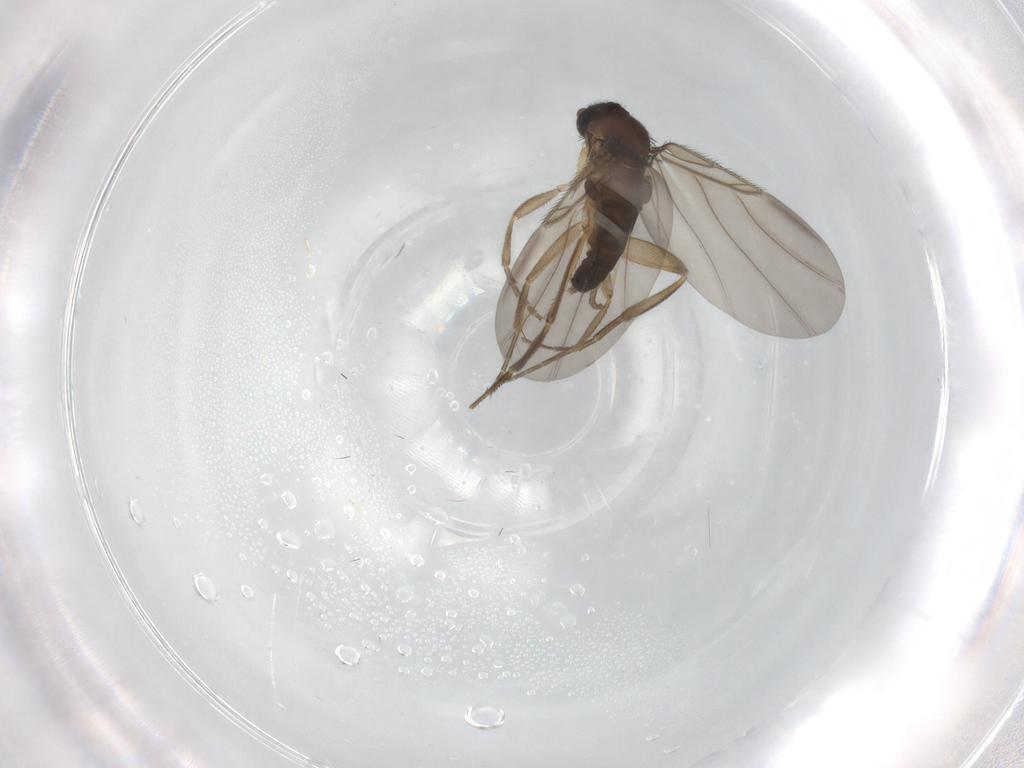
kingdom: Animalia
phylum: Arthropoda
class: Insecta
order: Diptera
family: Phoridae
